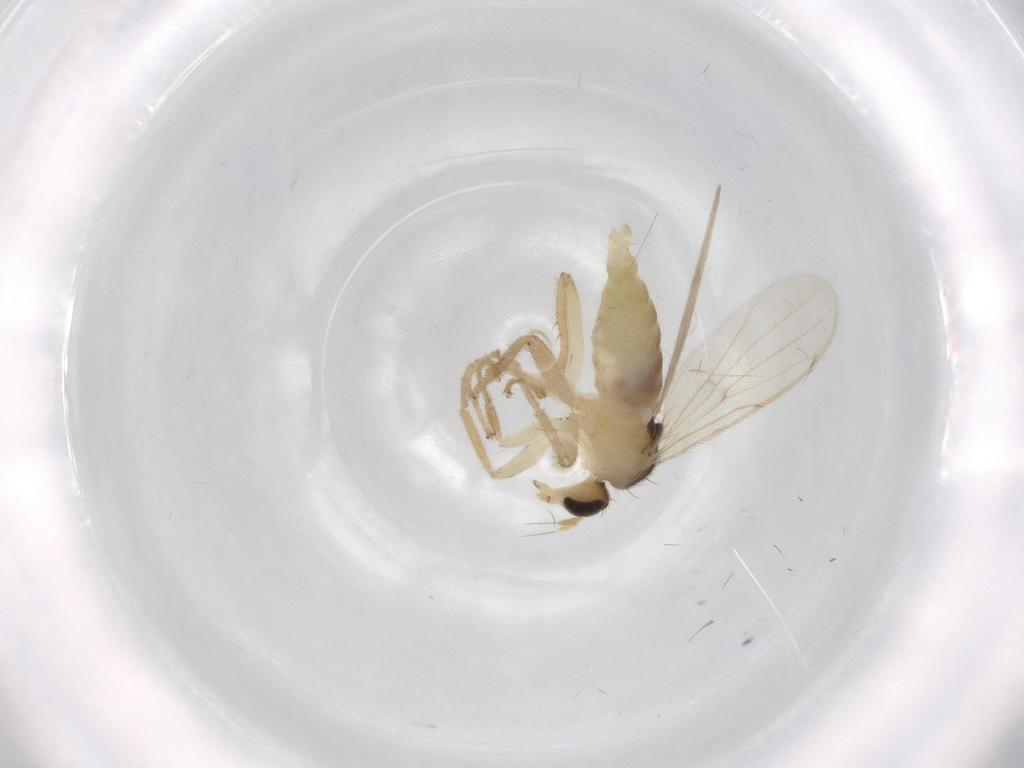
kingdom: Animalia
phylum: Arthropoda
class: Insecta
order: Diptera
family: Hybotidae
